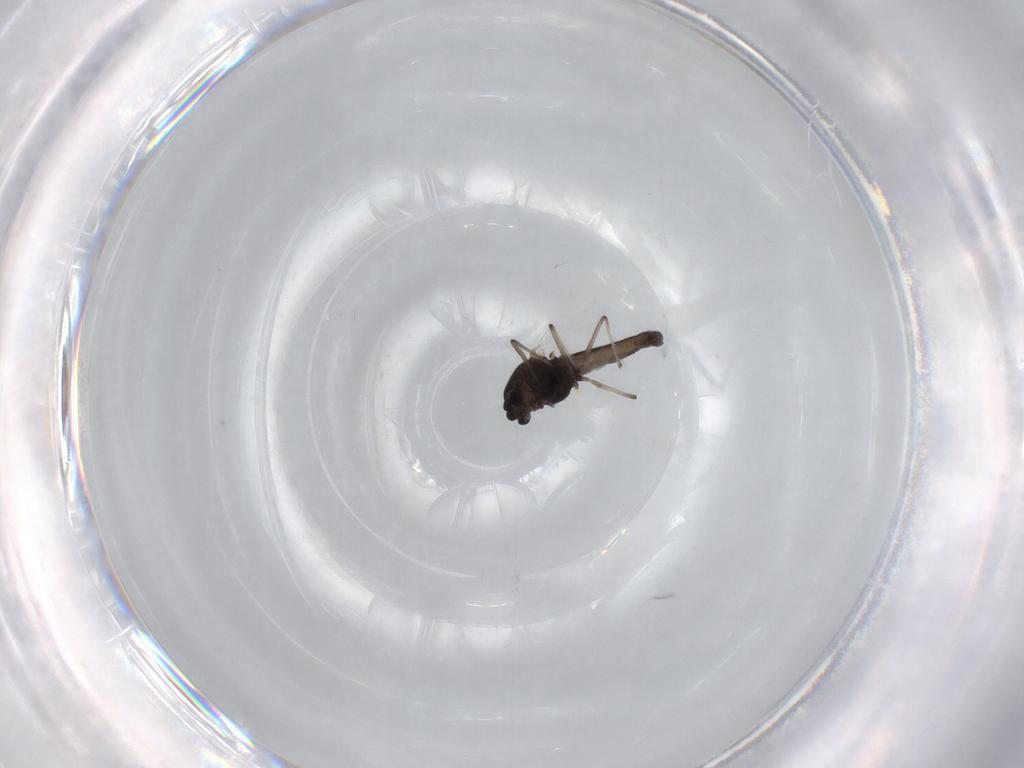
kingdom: Animalia
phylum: Arthropoda
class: Insecta
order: Diptera
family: Chironomidae
